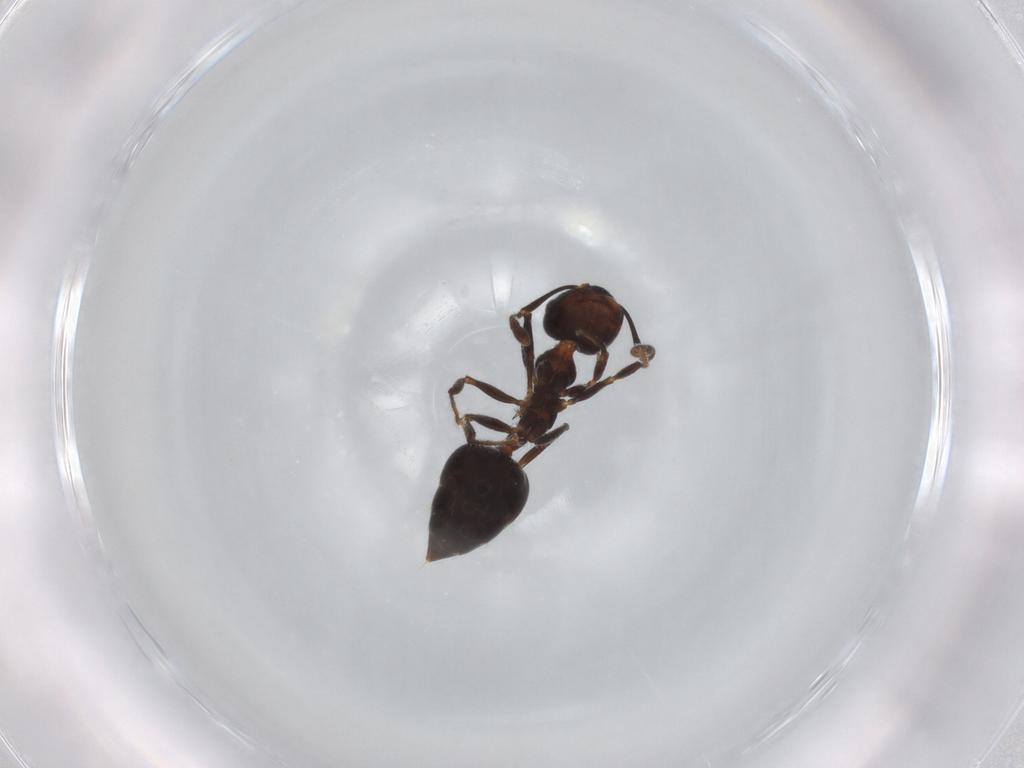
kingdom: Animalia
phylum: Arthropoda
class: Insecta
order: Hymenoptera
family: Formicidae
